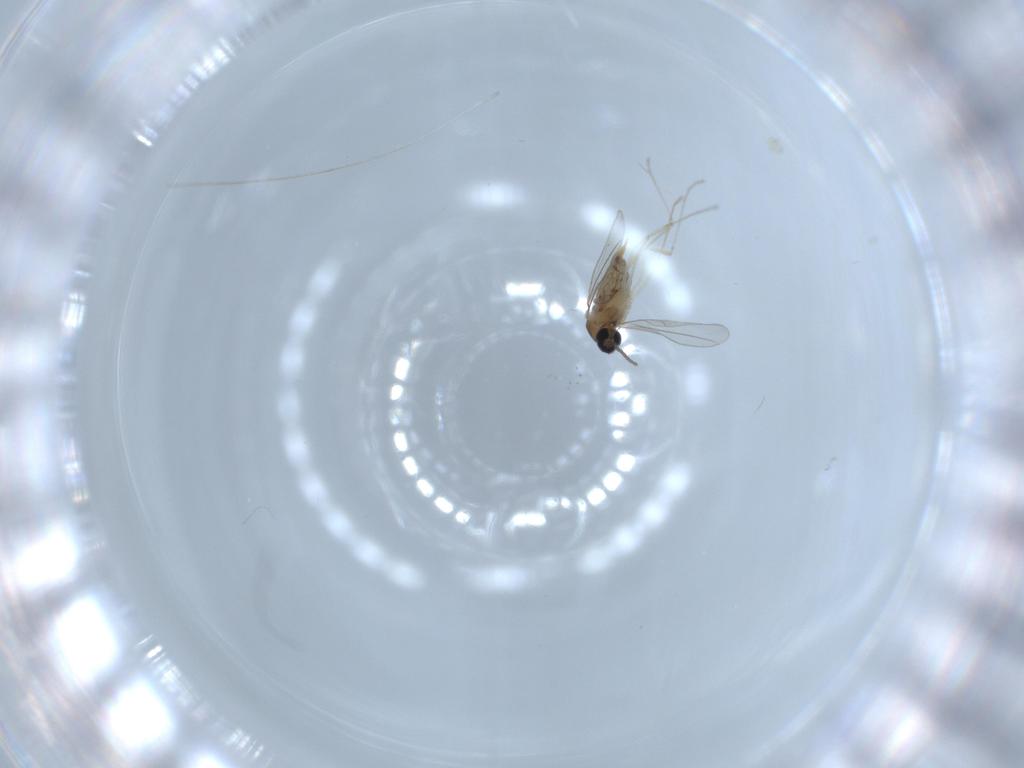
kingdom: Animalia
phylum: Arthropoda
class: Insecta
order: Diptera
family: Cecidomyiidae
